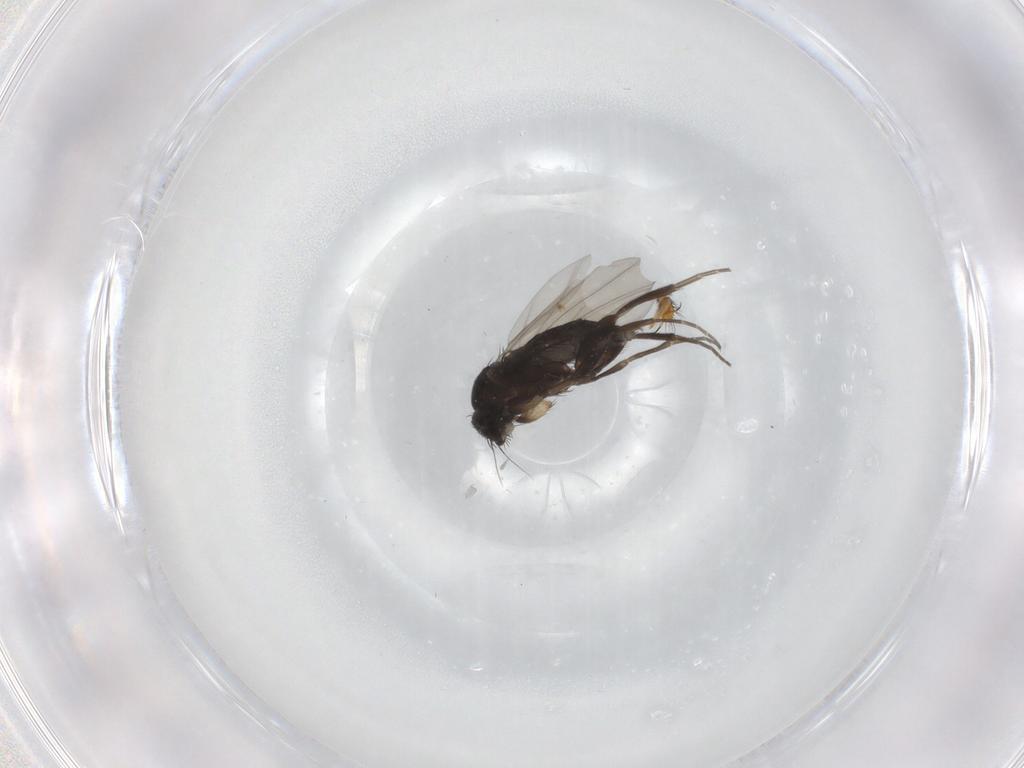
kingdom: Animalia
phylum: Arthropoda
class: Insecta
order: Diptera
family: Phoridae
